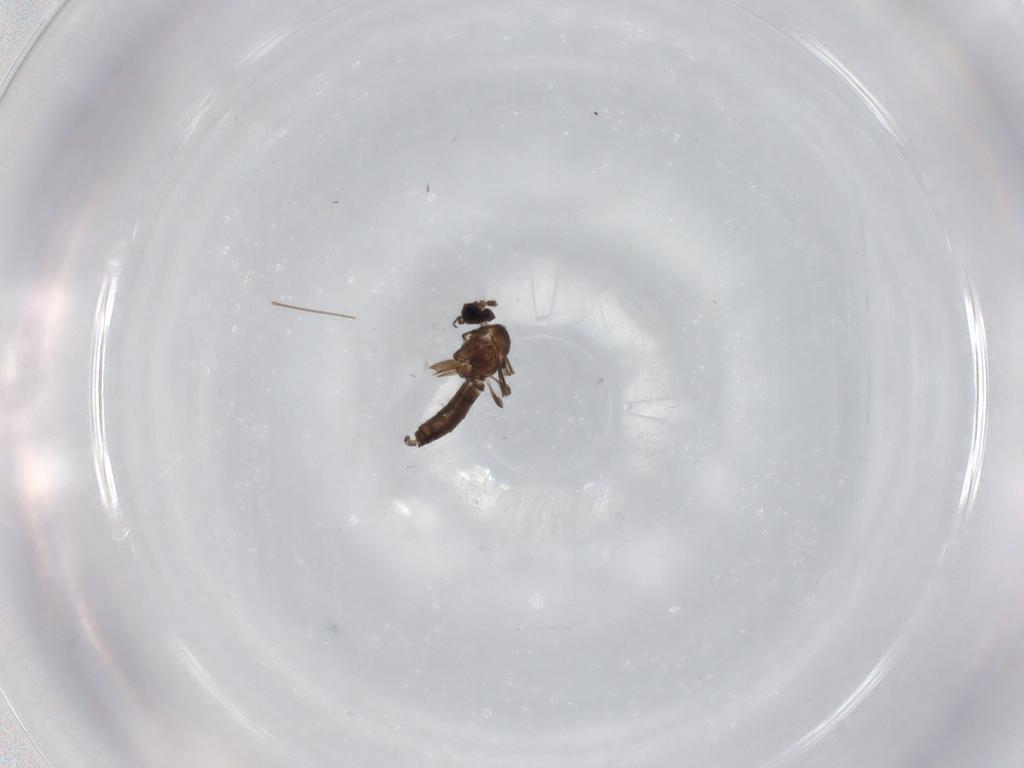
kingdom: Animalia
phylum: Arthropoda
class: Insecta
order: Diptera
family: Sciaridae
